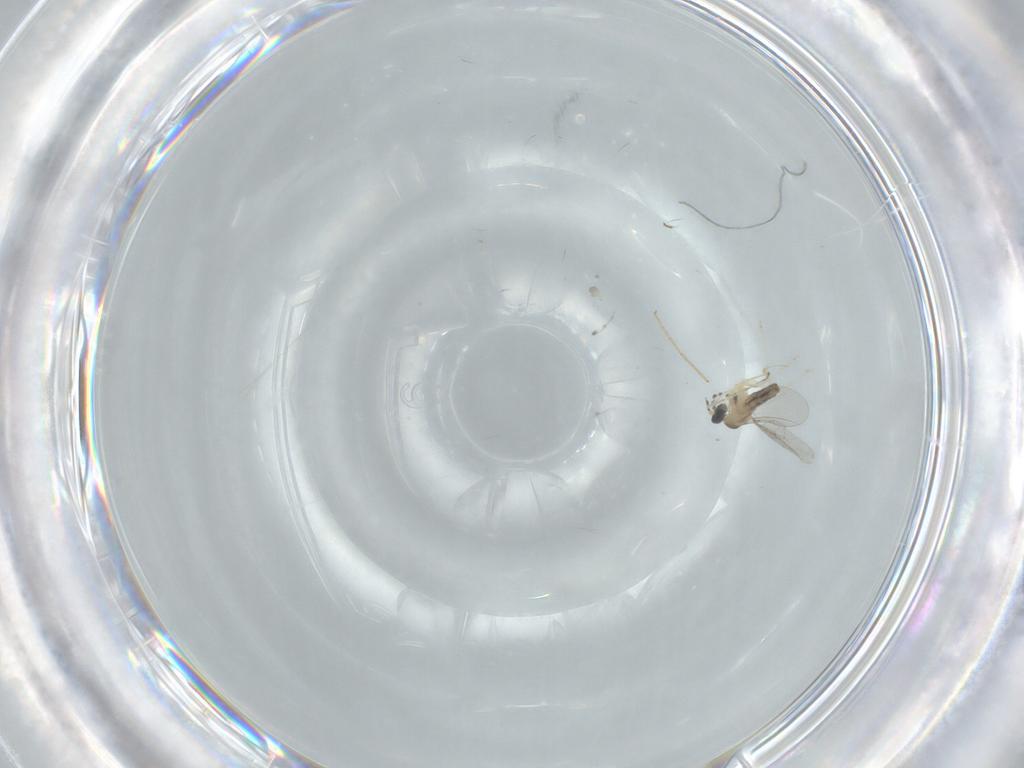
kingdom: Animalia
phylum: Arthropoda
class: Insecta
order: Diptera
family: Cecidomyiidae
